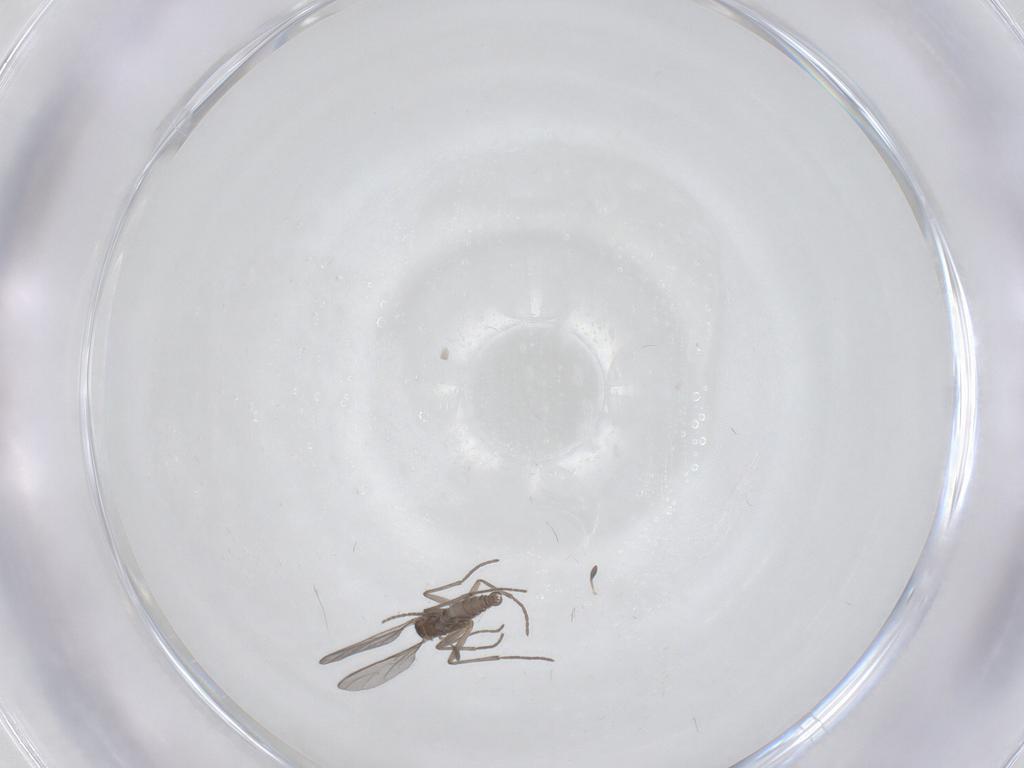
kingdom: Animalia
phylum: Arthropoda
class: Insecta
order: Diptera
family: Sciaridae
